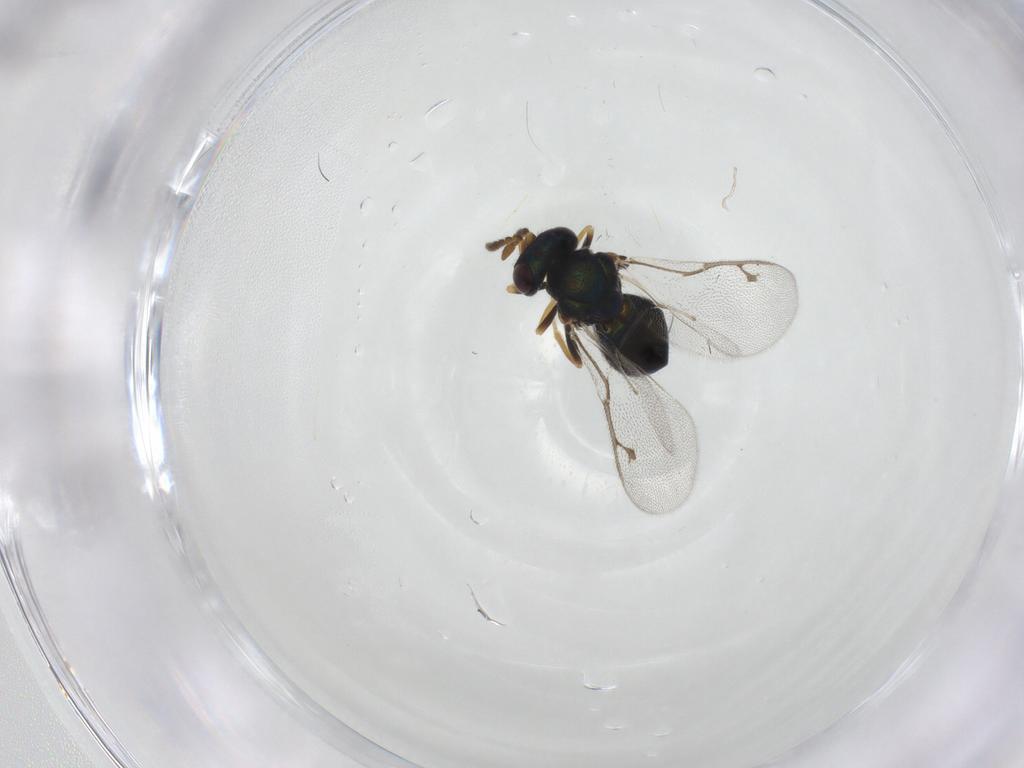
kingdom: Animalia
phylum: Arthropoda
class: Insecta
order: Hymenoptera
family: Pirenidae
